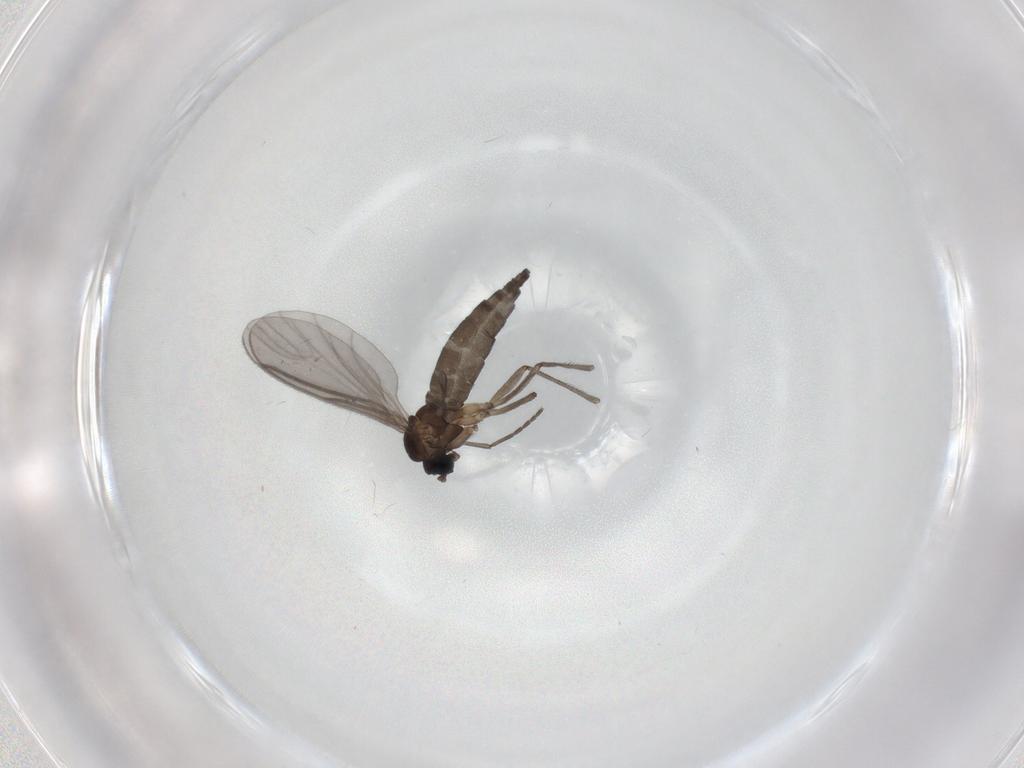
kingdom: Animalia
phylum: Arthropoda
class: Insecta
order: Diptera
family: Sciaridae
